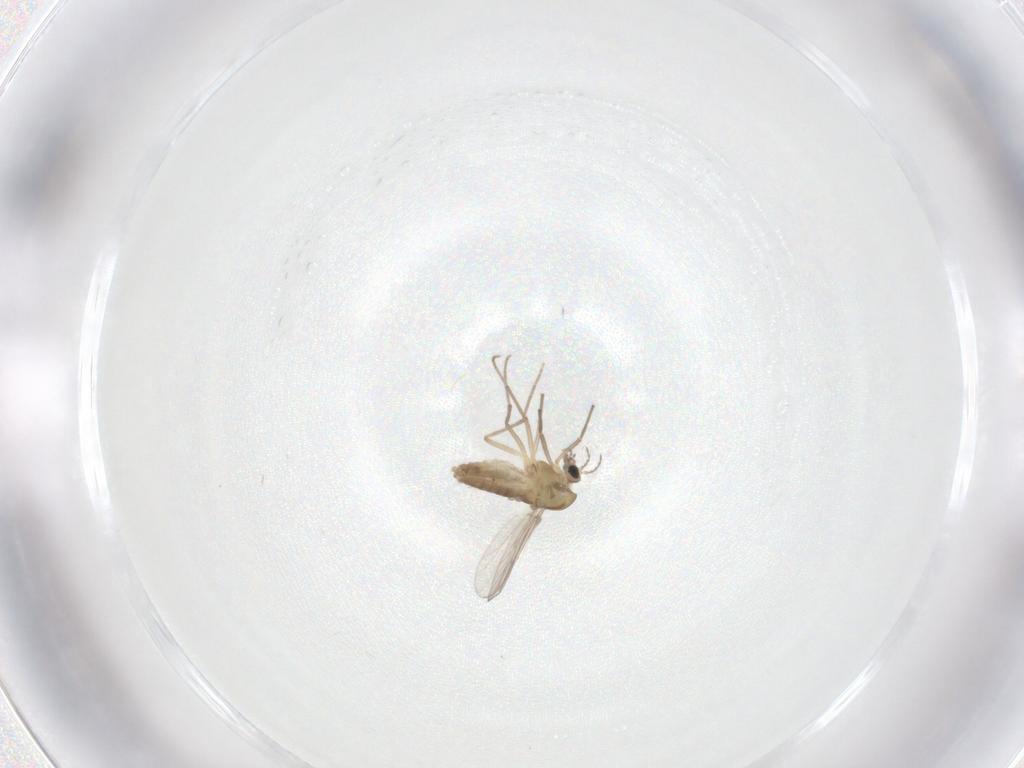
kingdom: Animalia
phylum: Arthropoda
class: Insecta
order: Diptera
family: Chironomidae
